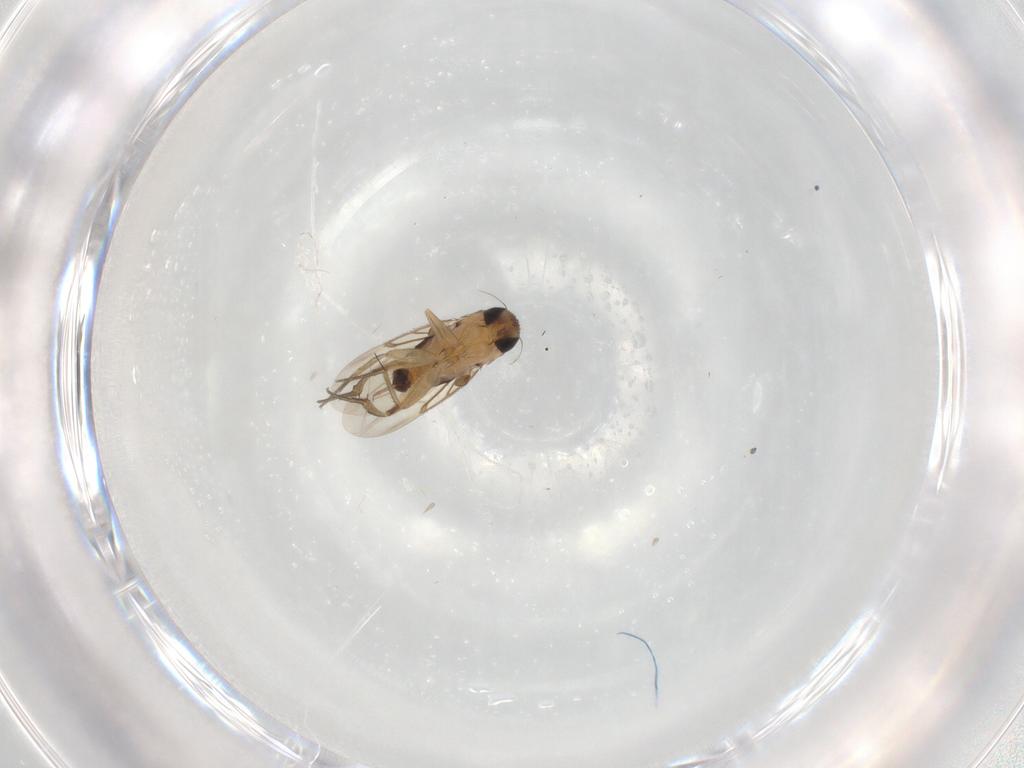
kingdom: Animalia
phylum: Arthropoda
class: Insecta
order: Diptera
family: Phoridae
